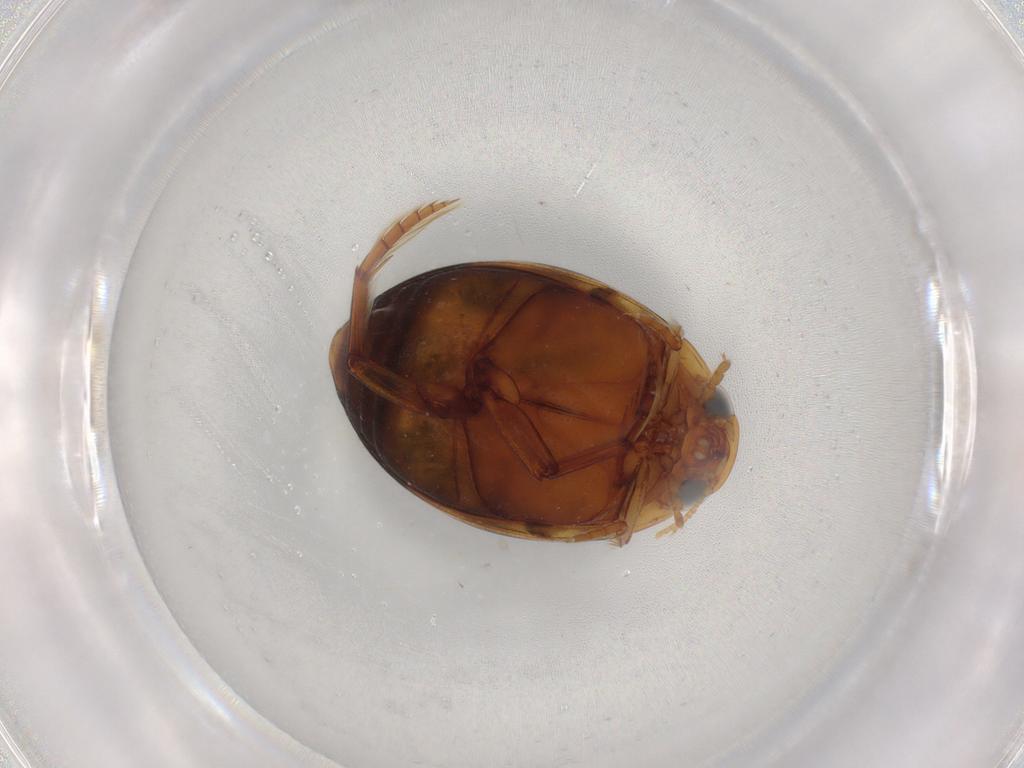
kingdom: Animalia
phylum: Arthropoda
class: Insecta
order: Coleoptera
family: Dytiscidae
